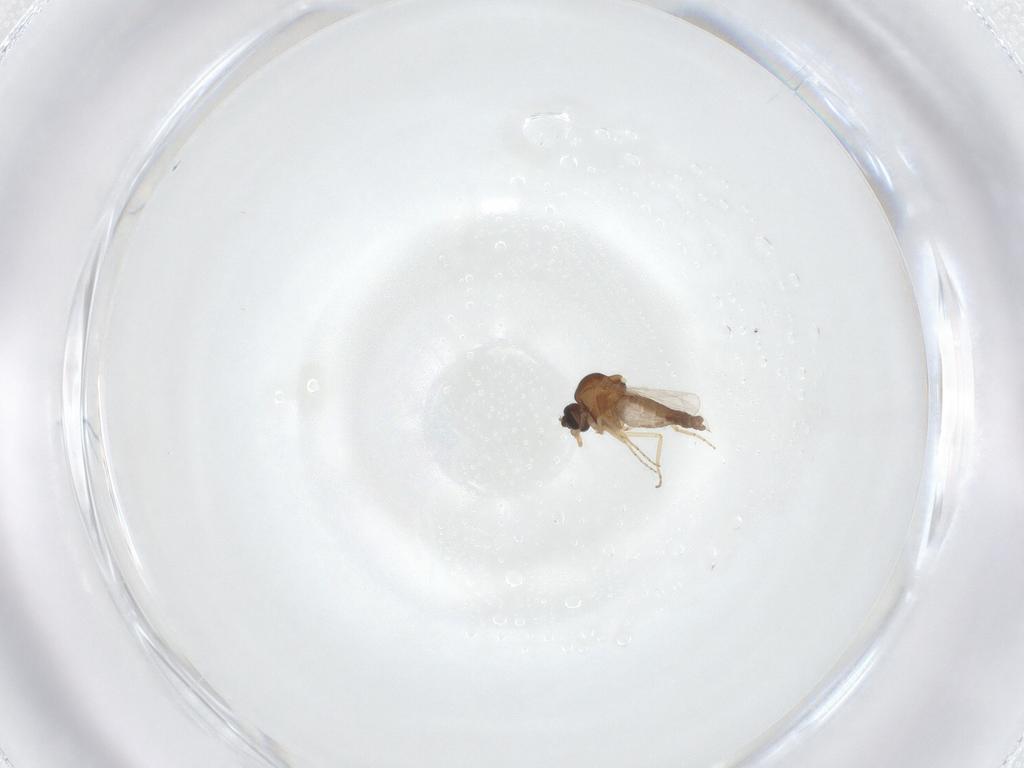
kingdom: Animalia
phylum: Arthropoda
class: Insecta
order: Diptera
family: Ceratopogonidae
